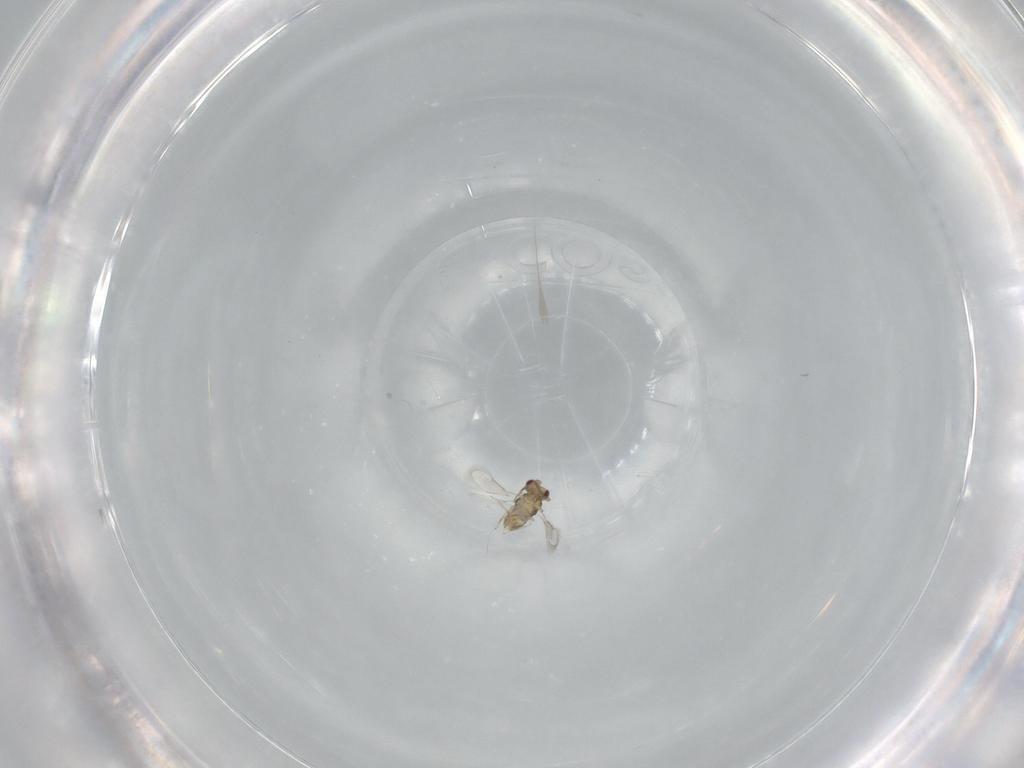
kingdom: Animalia
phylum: Arthropoda
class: Insecta
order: Hymenoptera
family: Aphelinidae
